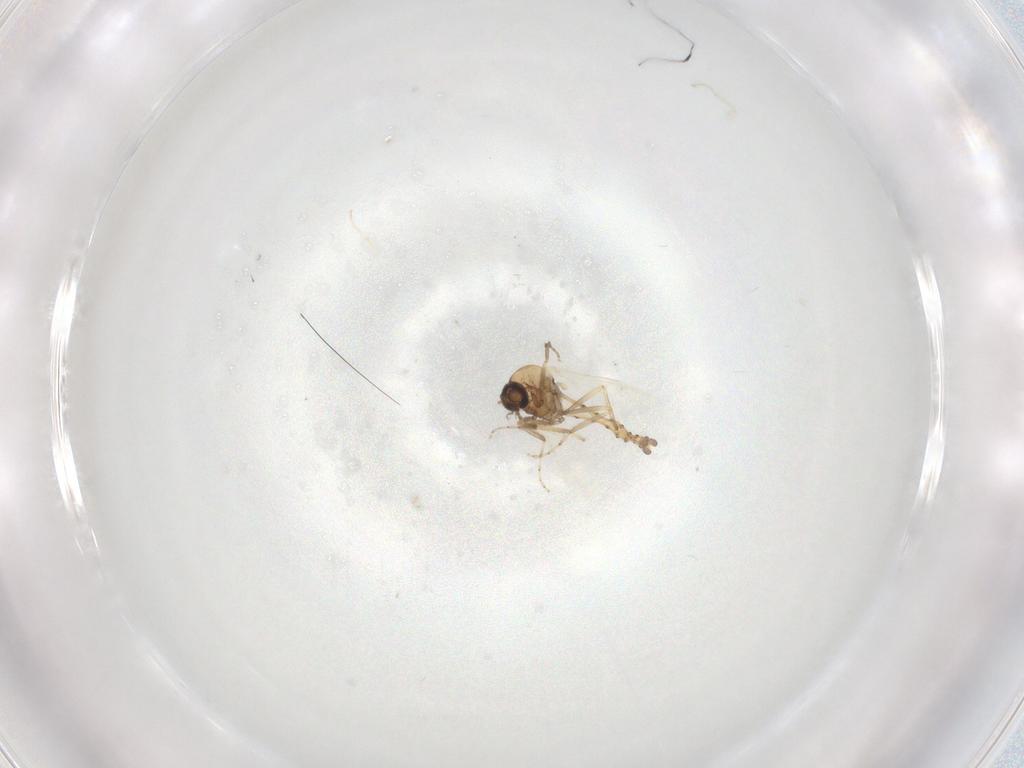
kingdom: Animalia
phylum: Arthropoda
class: Insecta
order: Diptera
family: Cecidomyiidae
